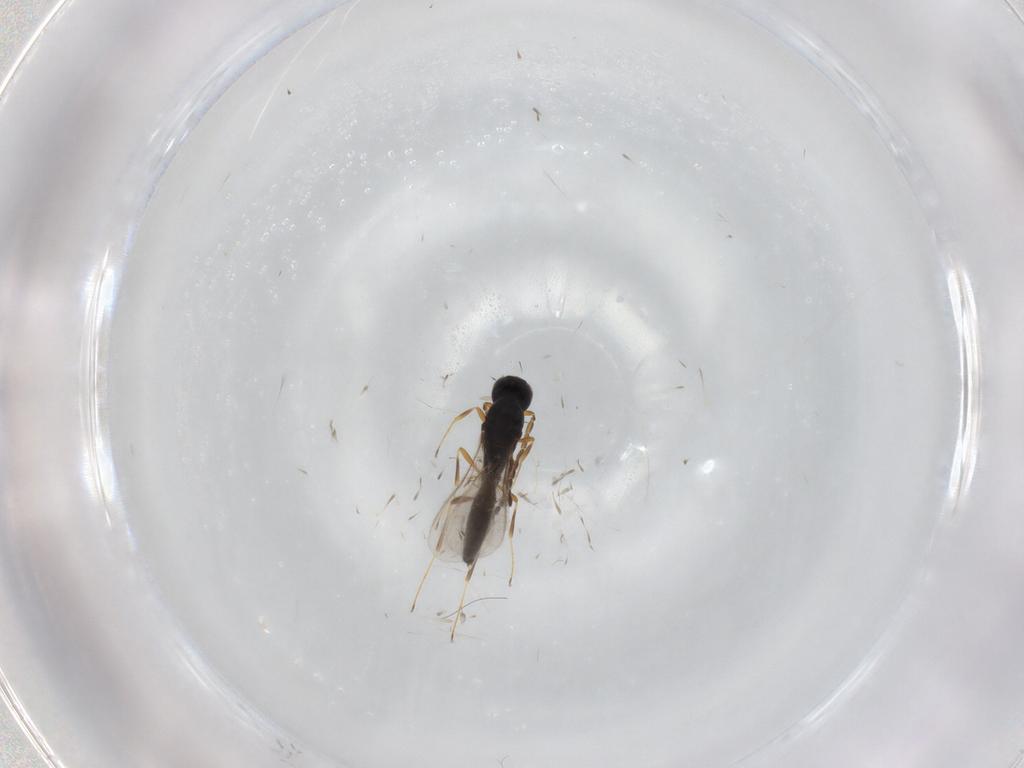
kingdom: Animalia
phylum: Arthropoda
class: Insecta
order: Hymenoptera
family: Scelionidae
